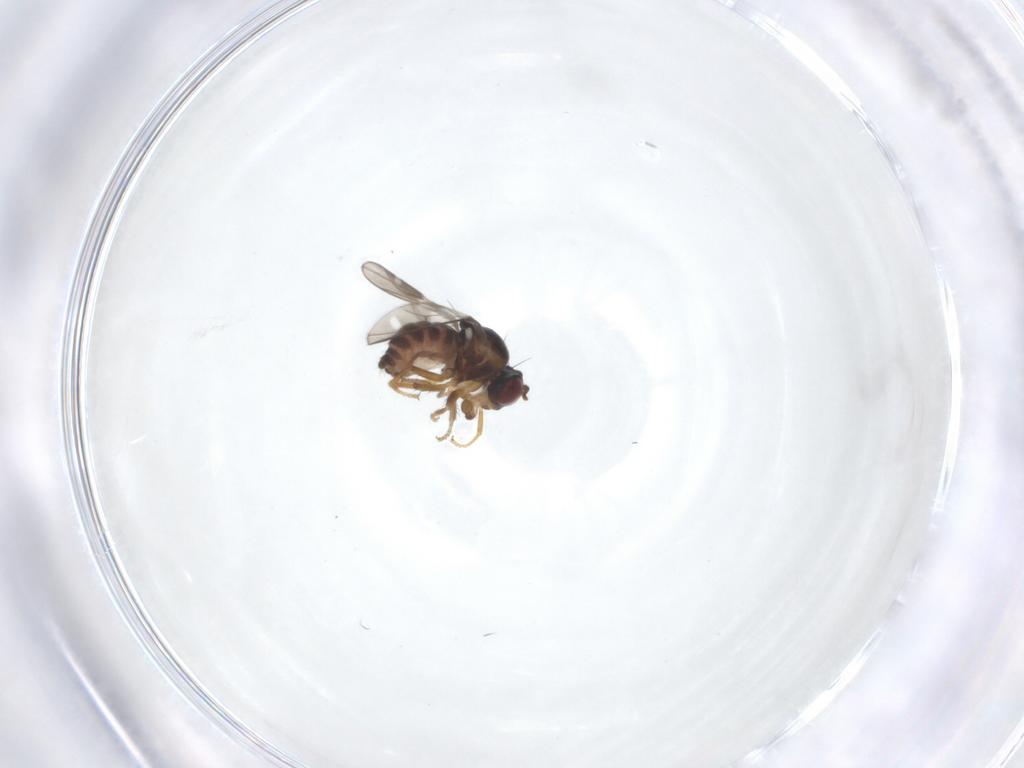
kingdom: Animalia
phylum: Arthropoda
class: Insecta
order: Diptera
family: Ephydridae
